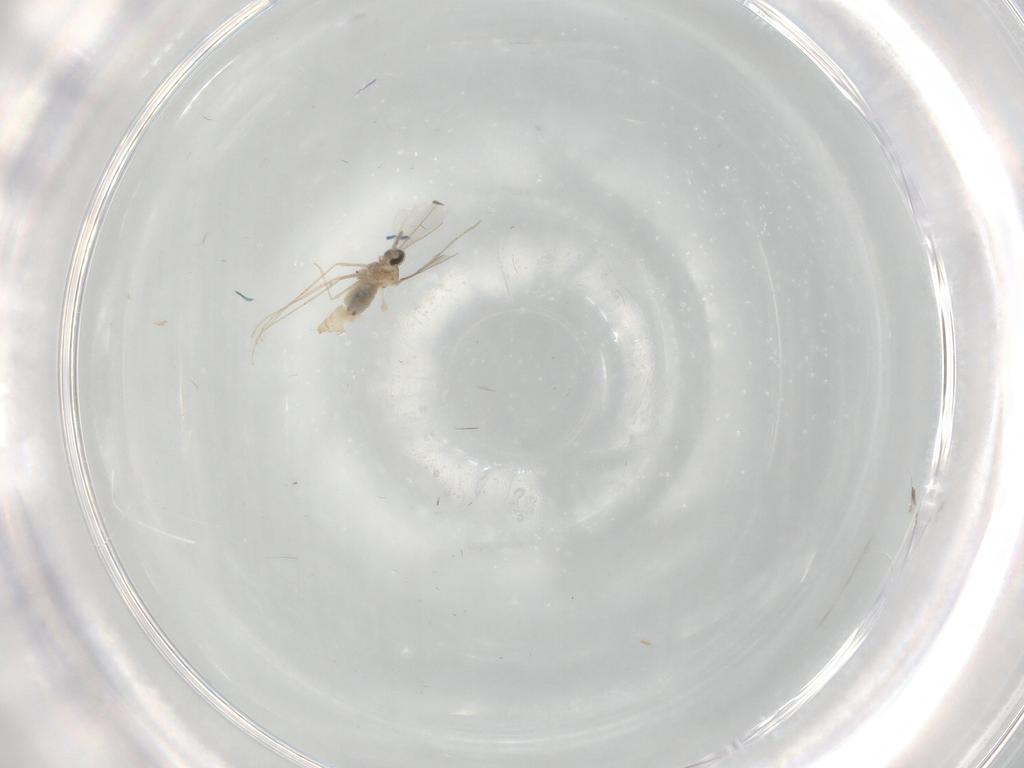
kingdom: Animalia
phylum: Arthropoda
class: Insecta
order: Diptera
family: Cecidomyiidae
